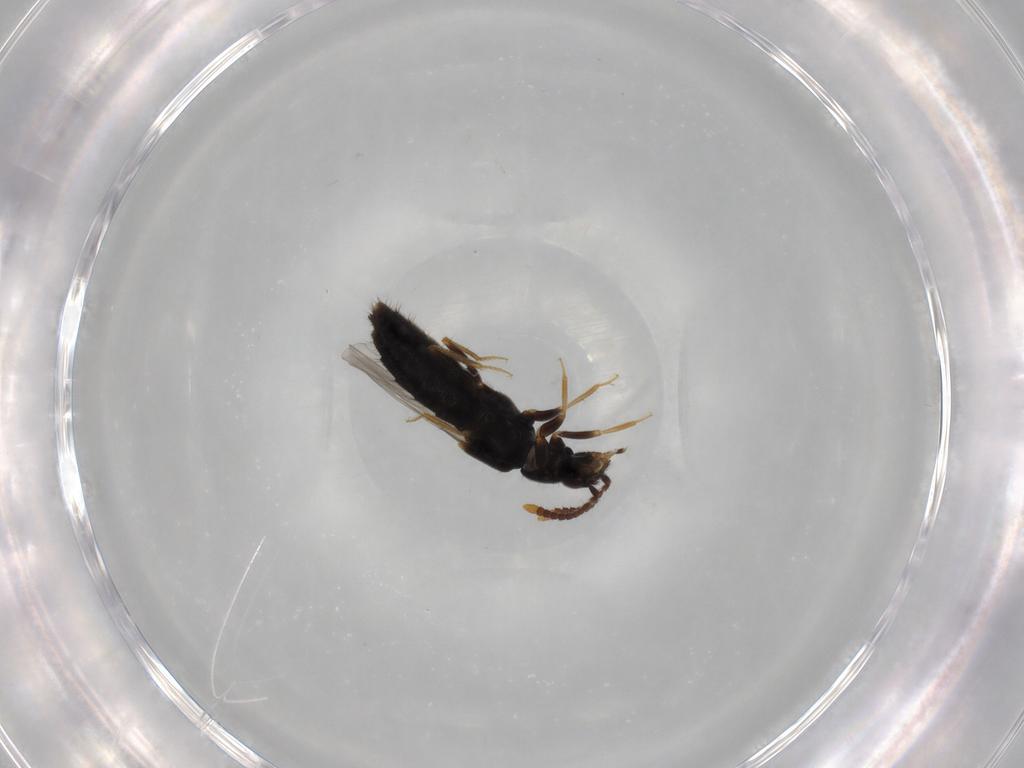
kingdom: Animalia
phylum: Arthropoda
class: Insecta
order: Coleoptera
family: Staphylinidae
